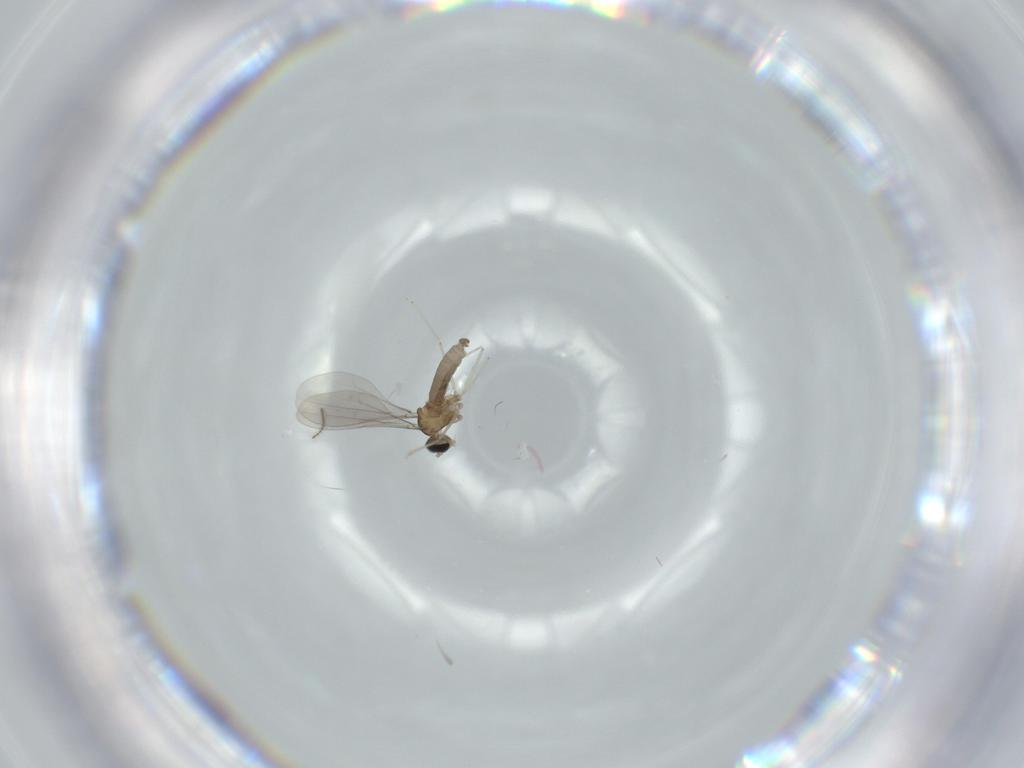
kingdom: Animalia
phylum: Arthropoda
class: Insecta
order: Diptera
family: Cecidomyiidae
